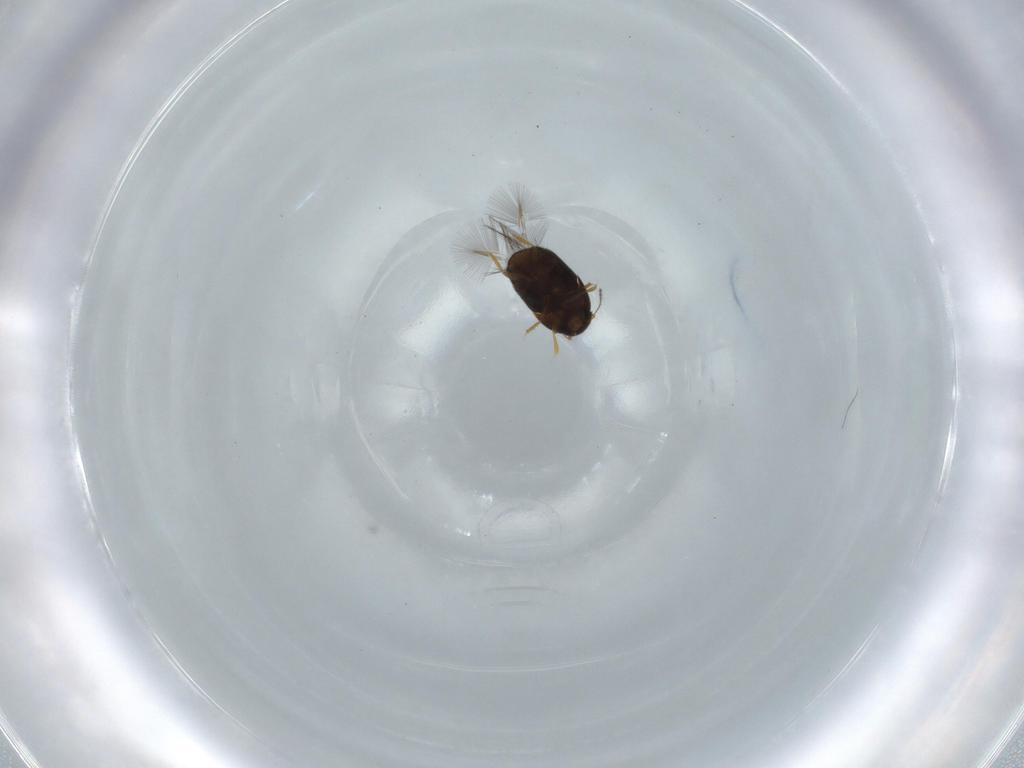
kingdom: Animalia
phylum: Arthropoda
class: Insecta
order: Coleoptera
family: Ptiliidae
